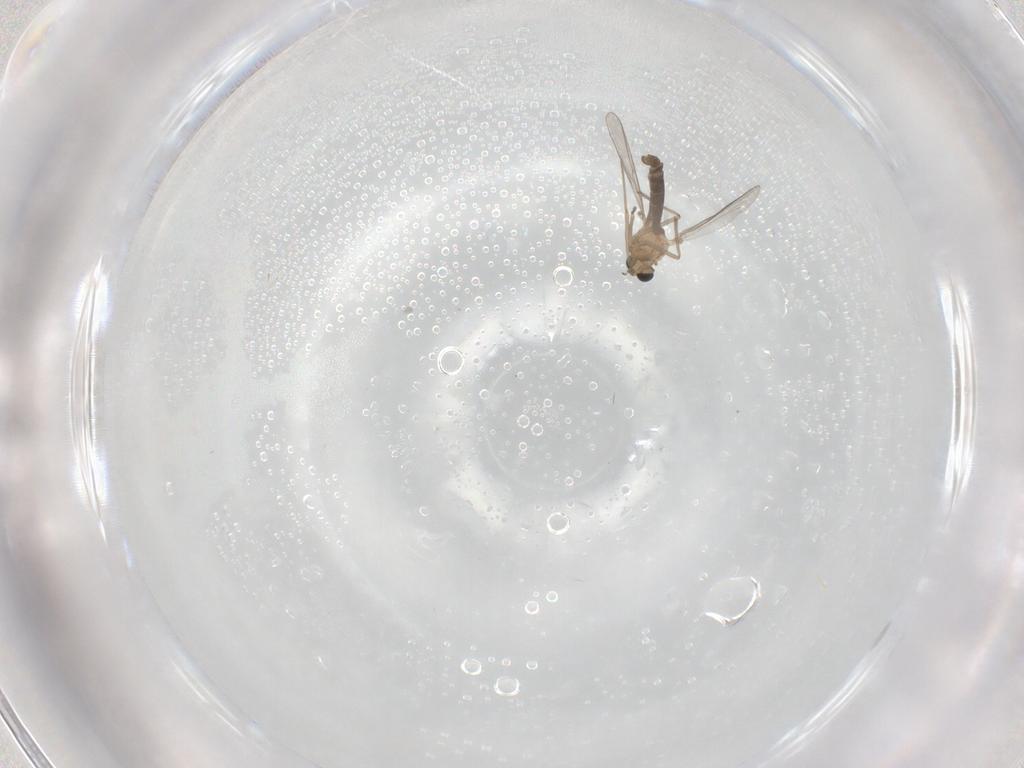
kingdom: Animalia
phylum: Arthropoda
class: Insecta
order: Diptera
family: Chironomidae
